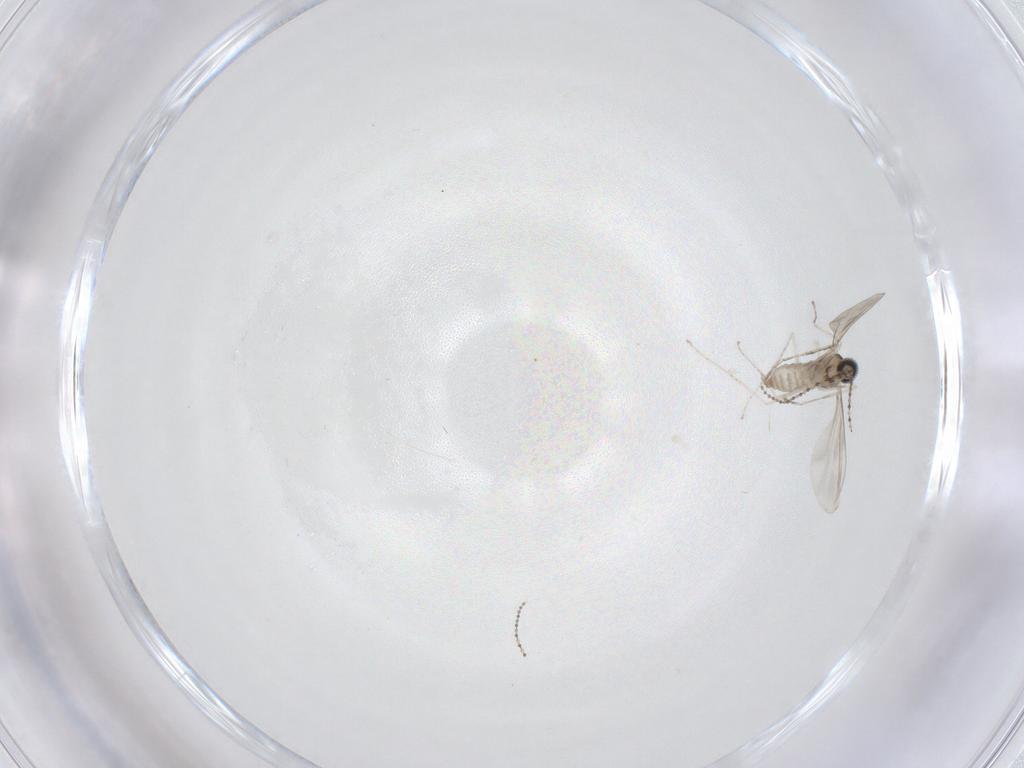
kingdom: Animalia
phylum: Arthropoda
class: Insecta
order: Diptera
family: Cecidomyiidae
